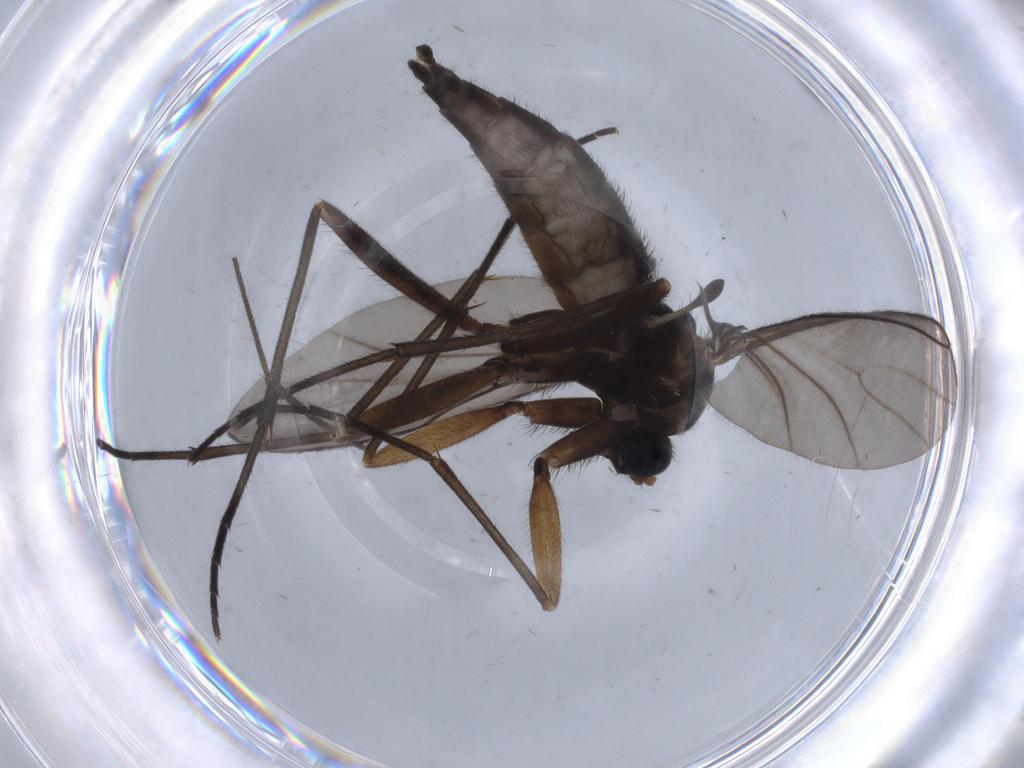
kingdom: Animalia
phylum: Arthropoda
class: Insecta
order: Diptera
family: Sciaridae
